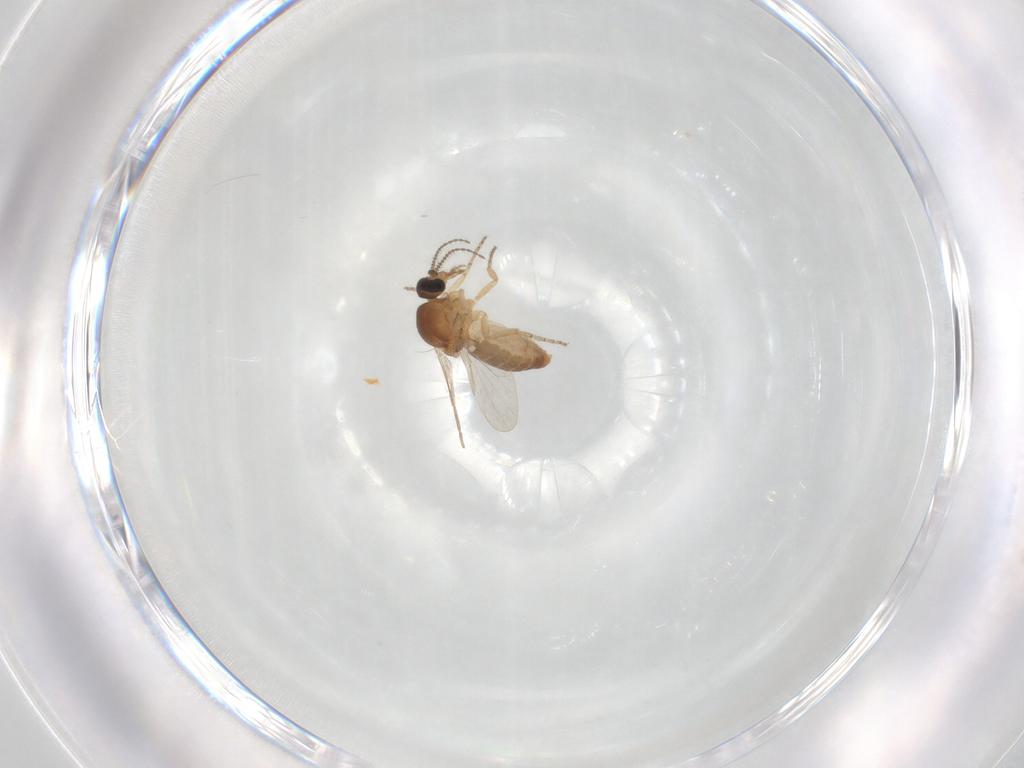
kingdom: Animalia
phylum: Arthropoda
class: Insecta
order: Diptera
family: Ceratopogonidae
